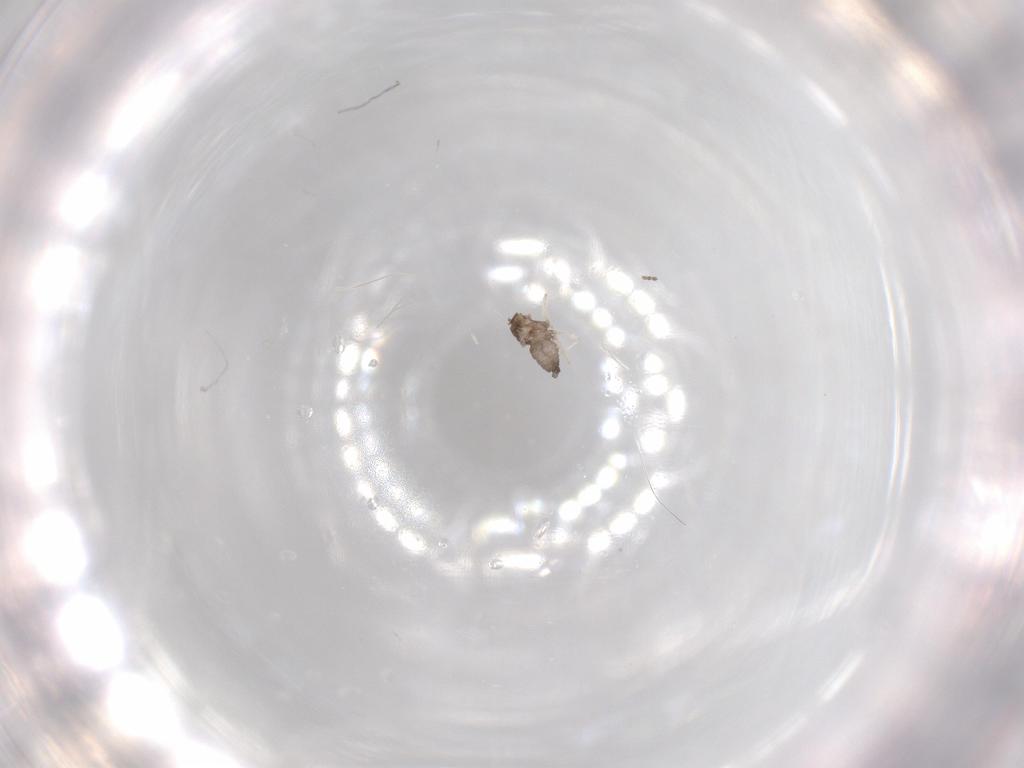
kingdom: Animalia
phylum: Arthropoda
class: Insecta
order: Diptera
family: Cecidomyiidae
